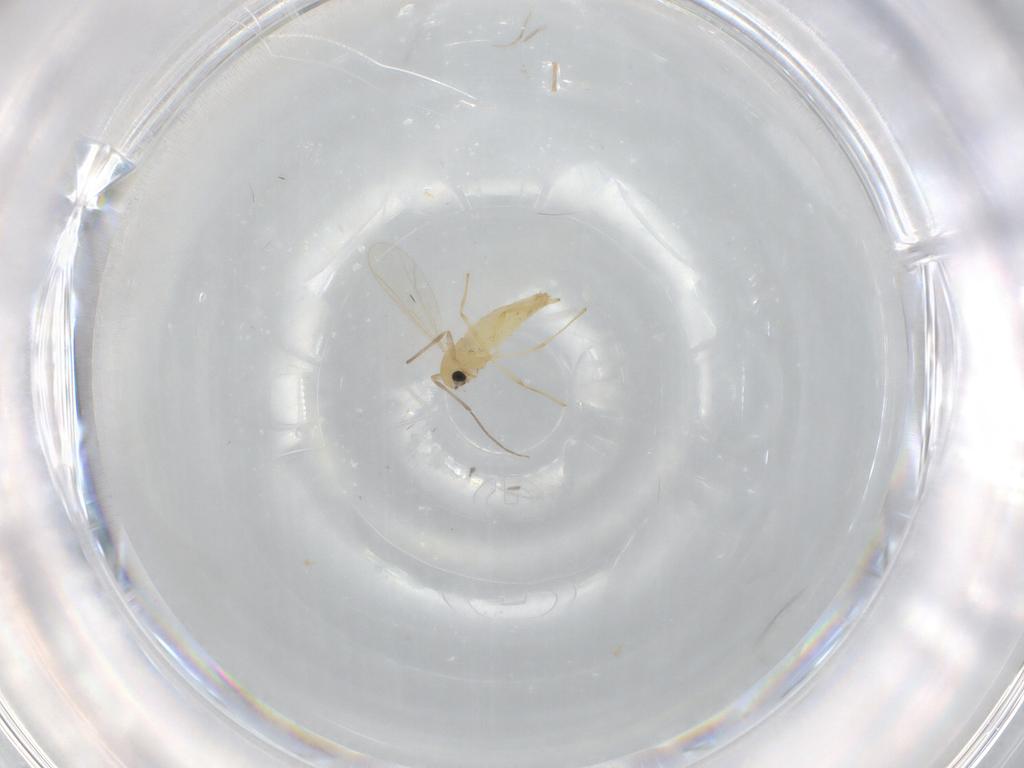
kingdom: Animalia
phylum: Arthropoda
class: Insecta
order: Diptera
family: Chironomidae
